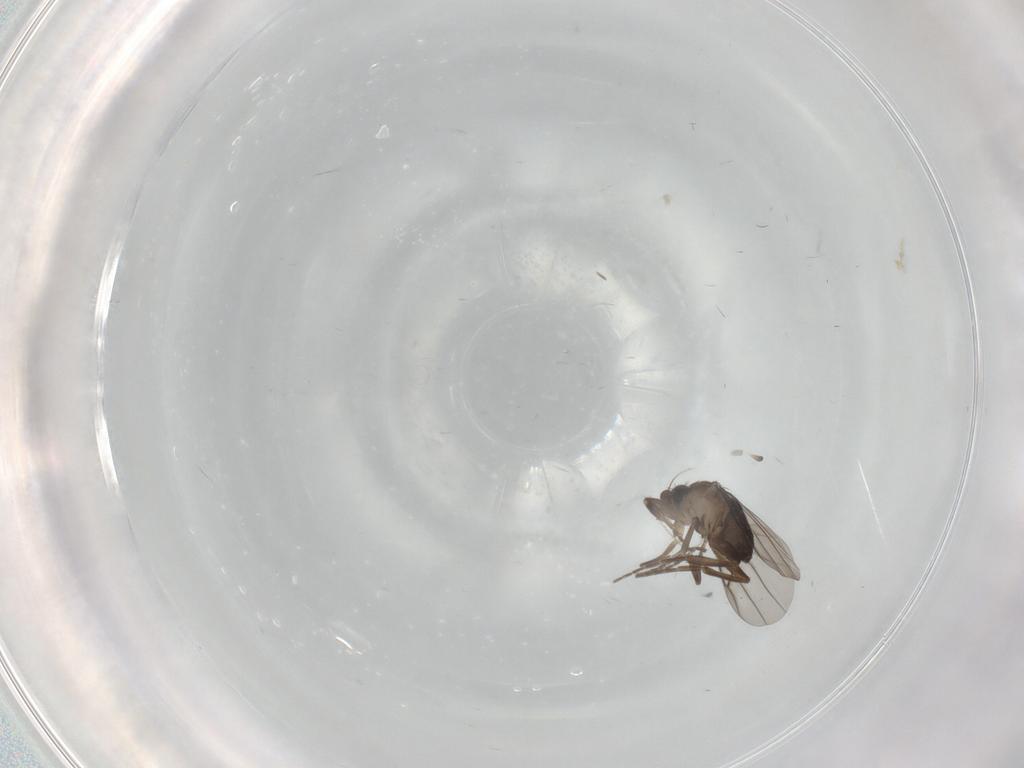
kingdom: Animalia
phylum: Arthropoda
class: Insecta
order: Diptera
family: Phoridae
